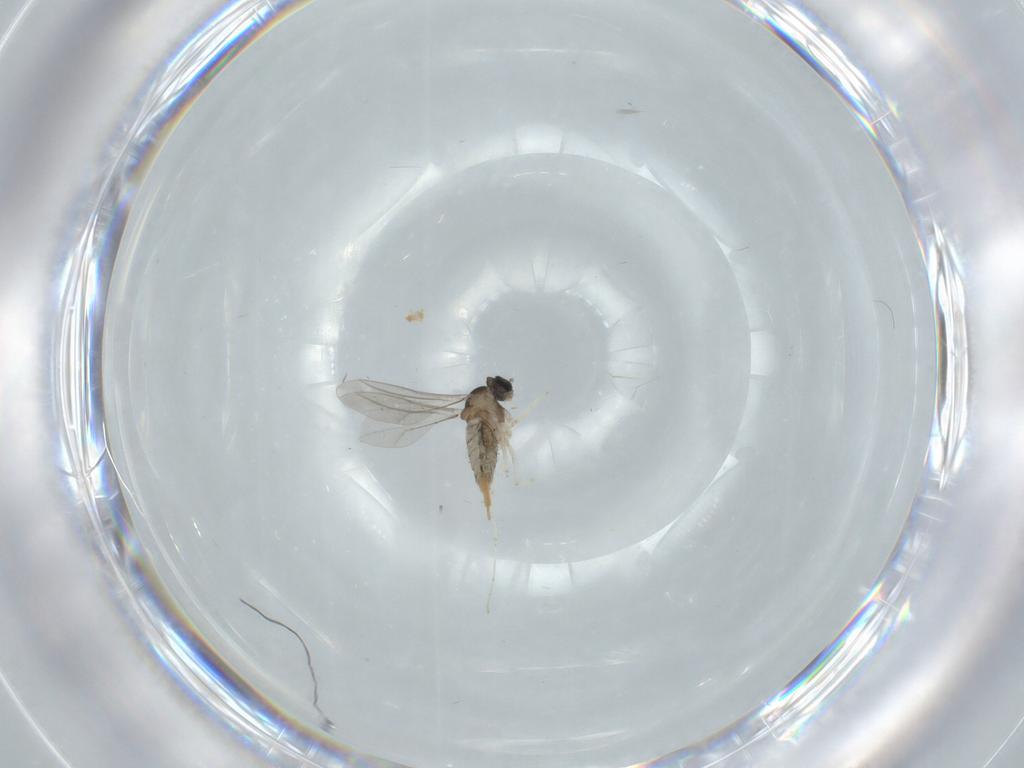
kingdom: Animalia
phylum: Arthropoda
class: Insecta
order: Diptera
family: Cecidomyiidae
